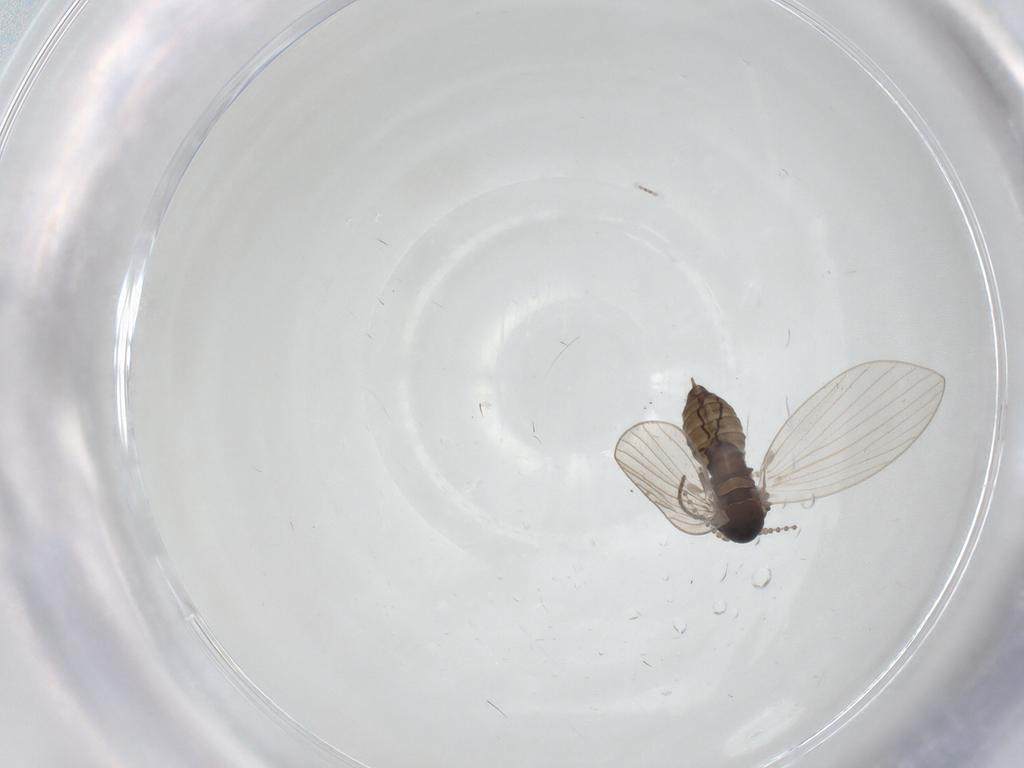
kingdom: Animalia
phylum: Arthropoda
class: Insecta
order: Diptera
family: Psychodidae
